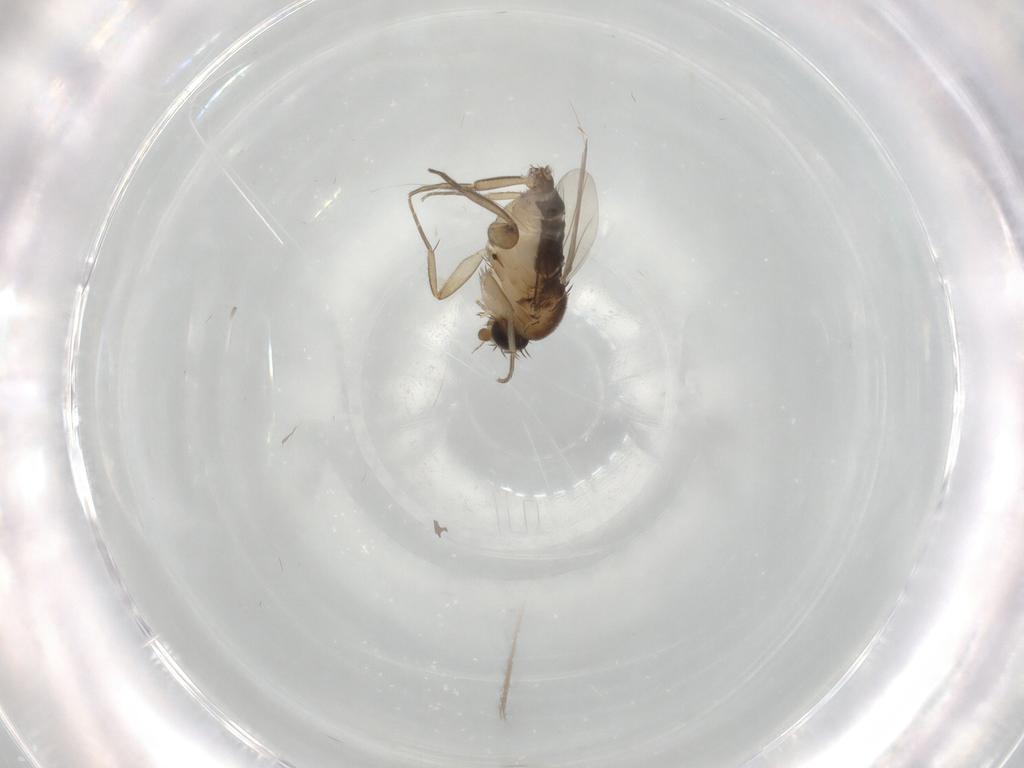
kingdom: Animalia
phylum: Arthropoda
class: Insecta
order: Diptera
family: Phoridae
